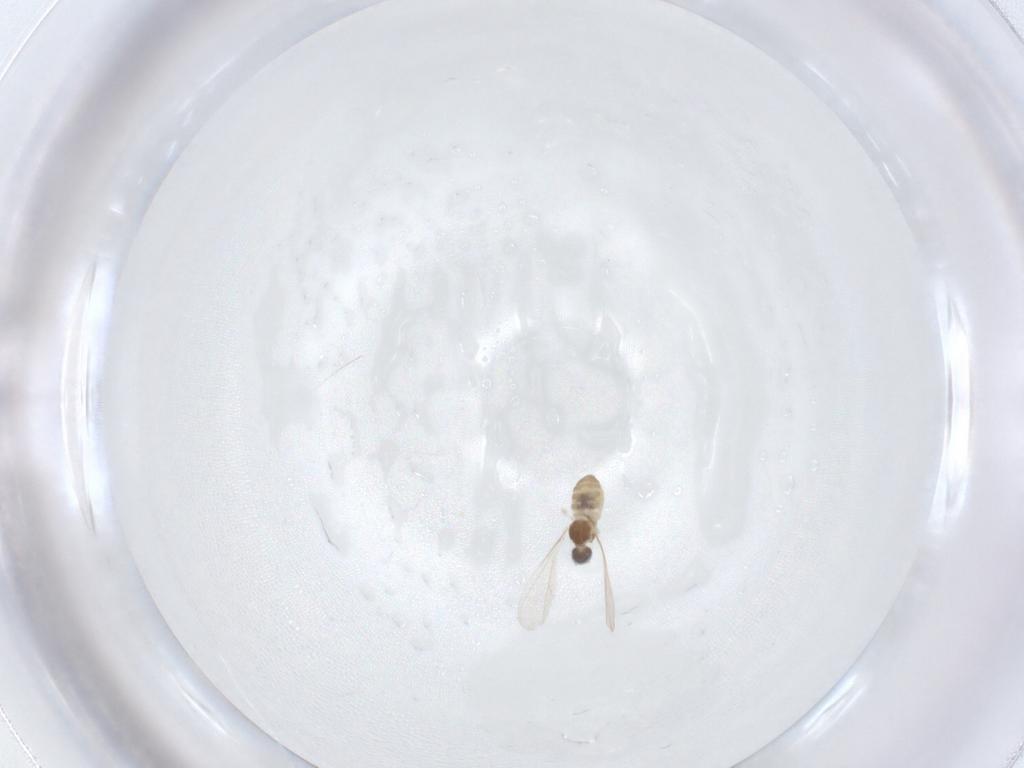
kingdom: Animalia
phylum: Arthropoda
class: Insecta
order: Diptera
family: Cecidomyiidae
